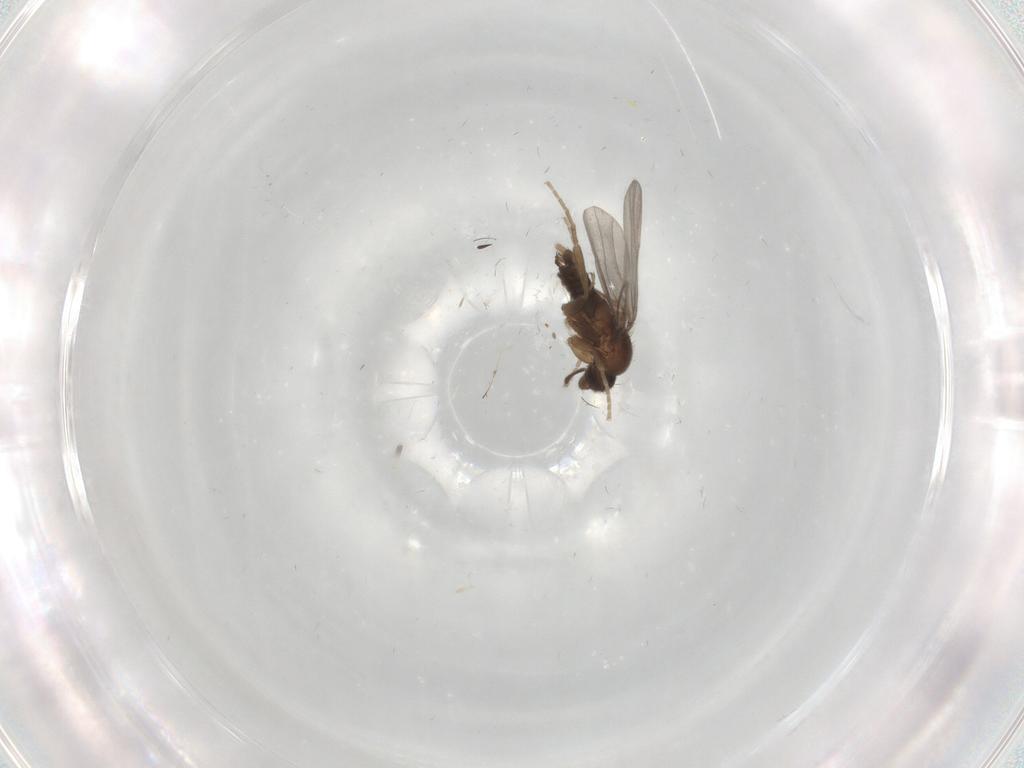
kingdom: Animalia
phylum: Arthropoda
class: Insecta
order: Diptera
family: Phoridae
